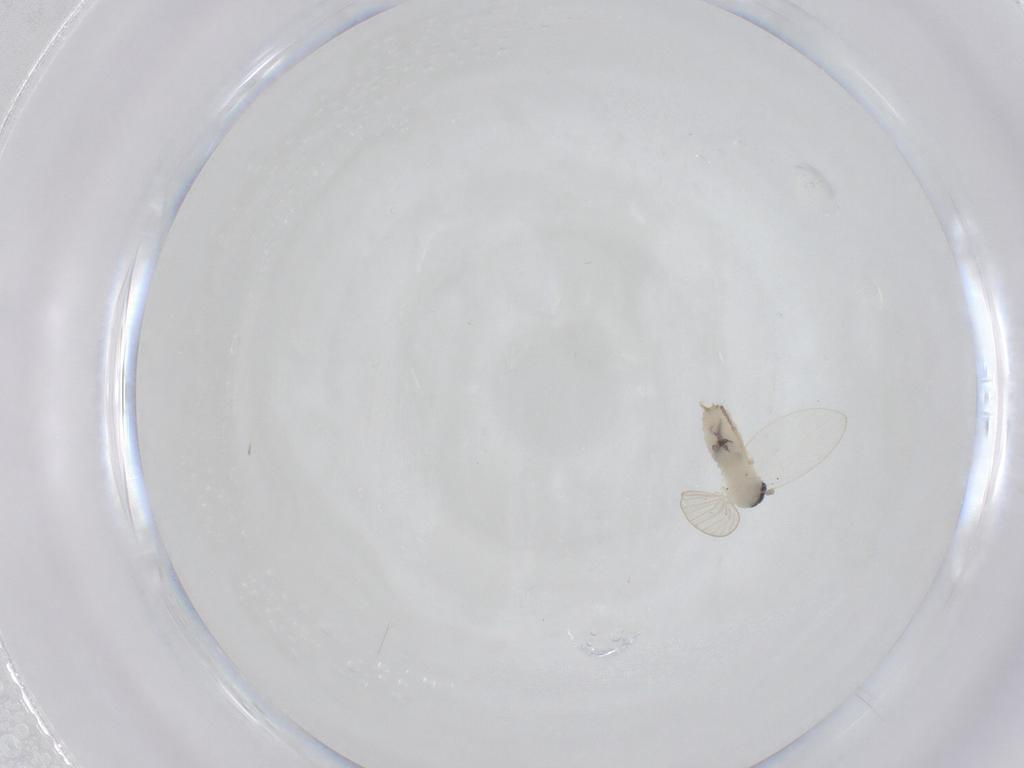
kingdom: Animalia
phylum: Arthropoda
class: Insecta
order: Diptera
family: Psychodidae
